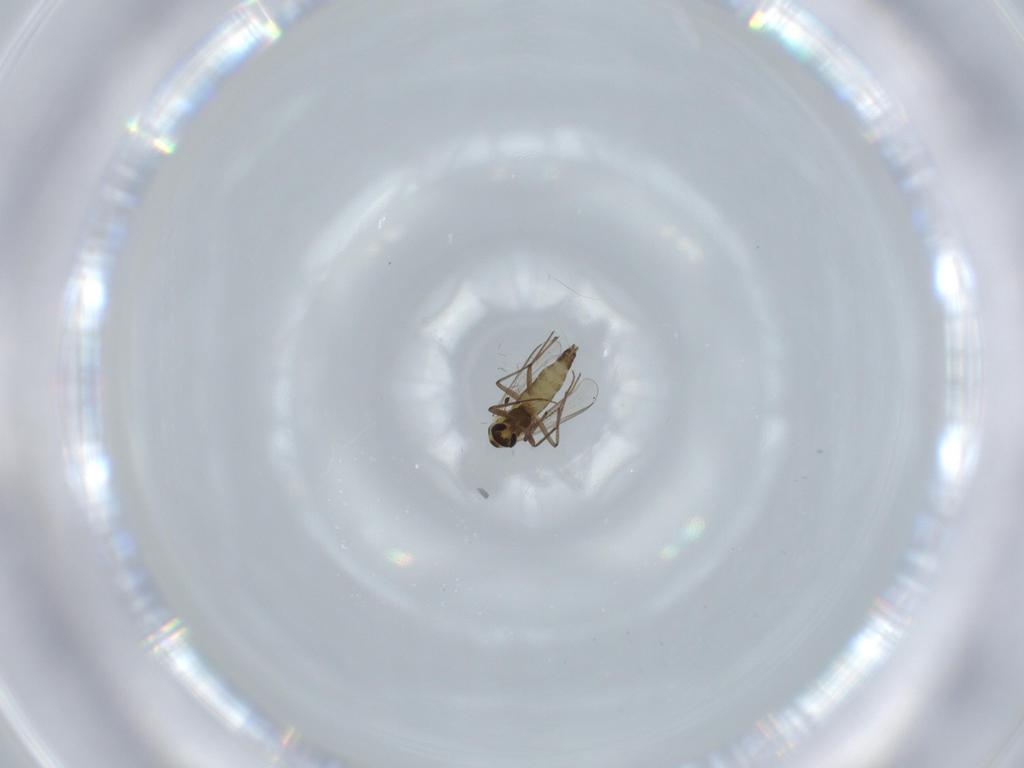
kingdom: Animalia
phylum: Arthropoda
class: Insecta
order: Diptera
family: Chironomidae
